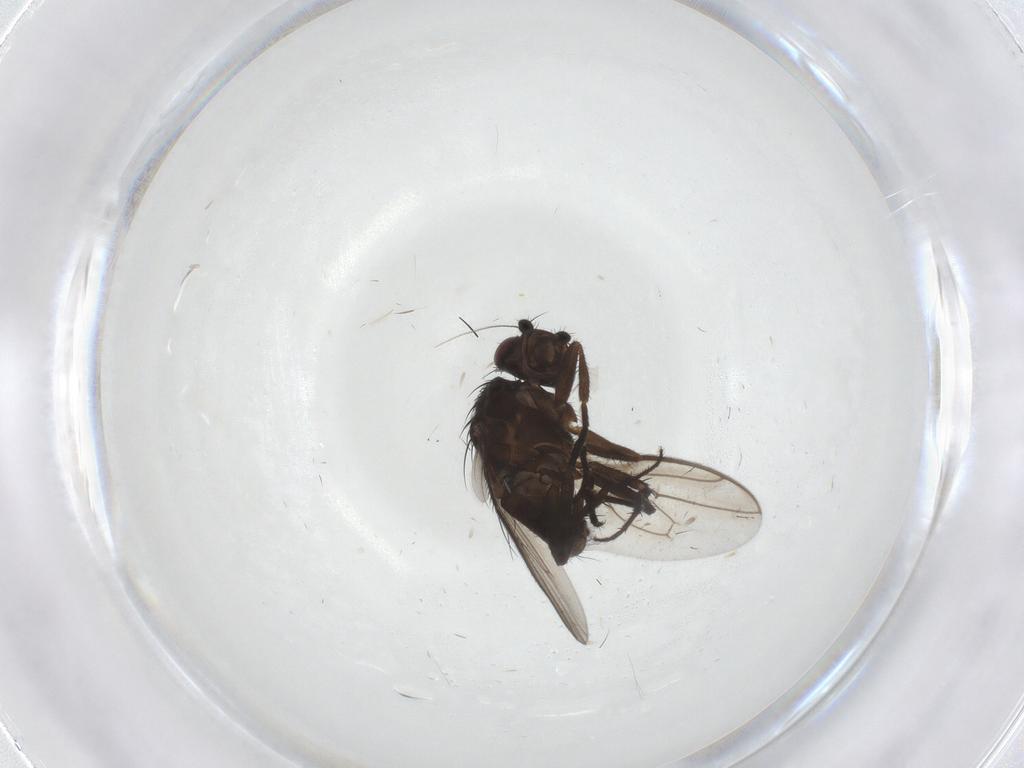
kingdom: Animalia
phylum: Arthropoda
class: Insecta
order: Diptera
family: Sphaeroceridae
